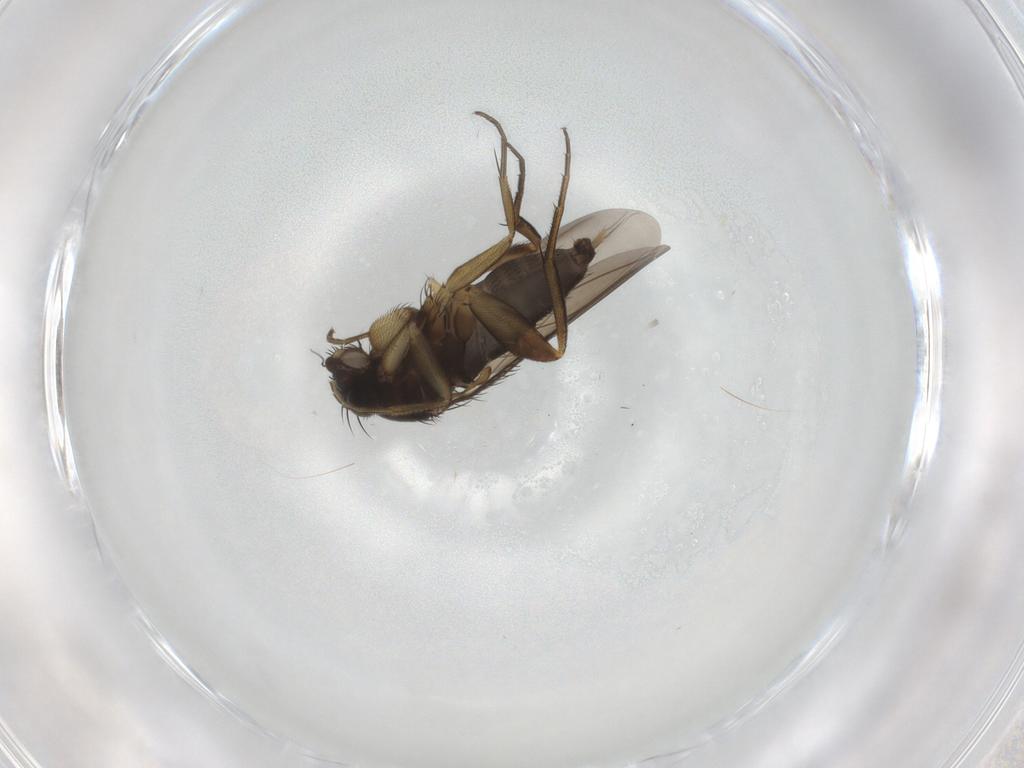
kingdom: Animalia
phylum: Arthropoda
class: Insecta
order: Diptera
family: Phoridae
